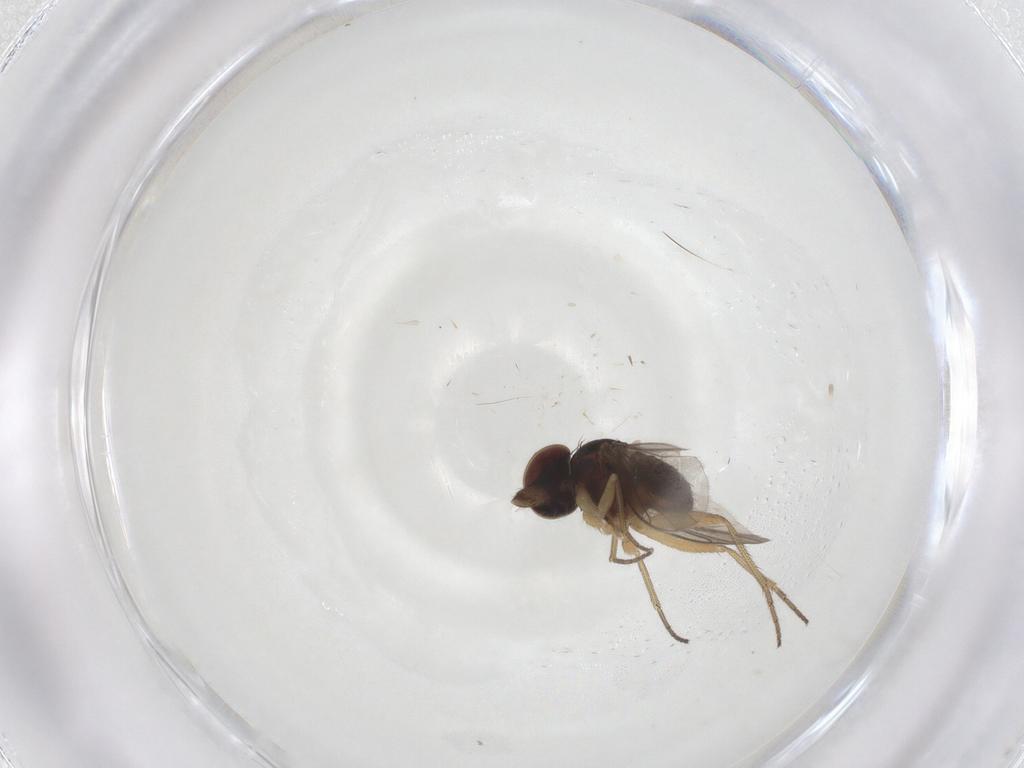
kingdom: Animalia
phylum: Arthropoda
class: Insecta
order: Diptera
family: Dolichopodidae
